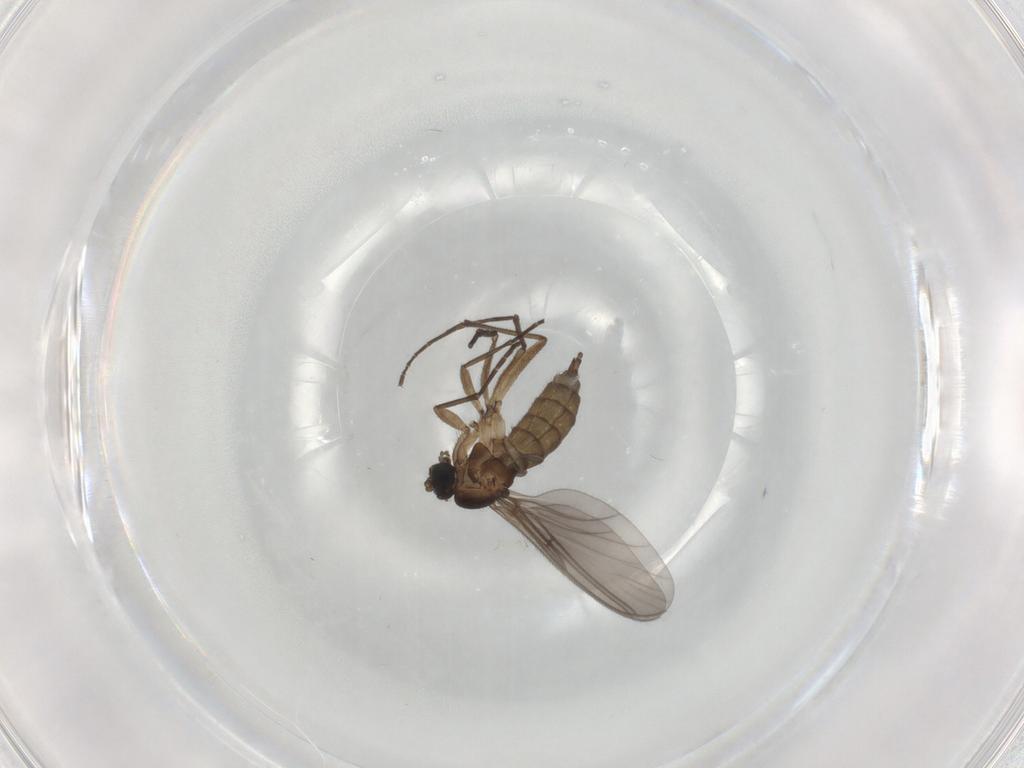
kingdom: Animalia
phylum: Arthropoda
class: Insecta
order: Diptera
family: Sciaridae
